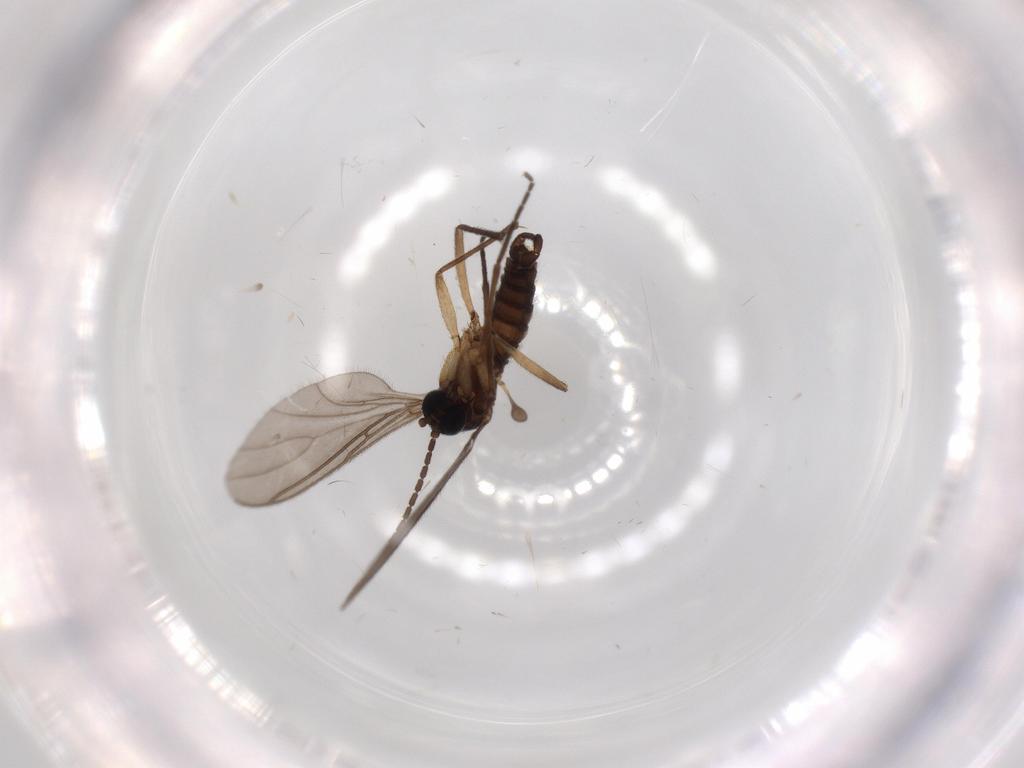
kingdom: Animalia
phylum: Arthropoda
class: Insecta
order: Diptera
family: Sciaridae
